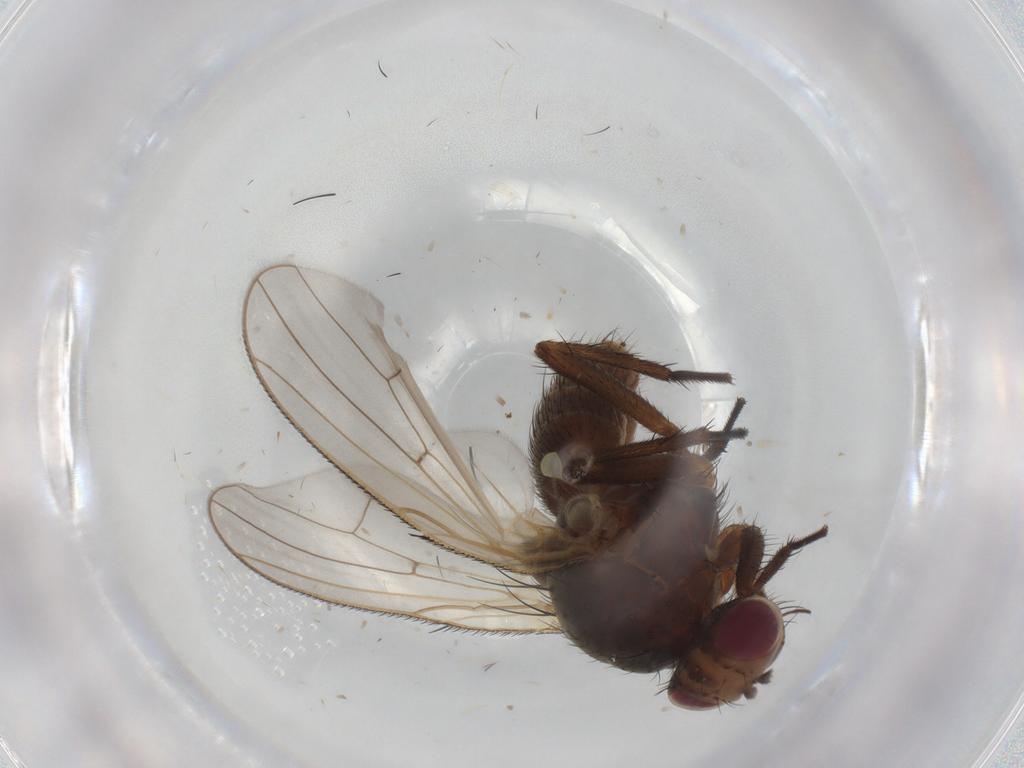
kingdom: Animalia
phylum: Arthropoda
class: Insecta
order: Diptera
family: Anthomyiidae
